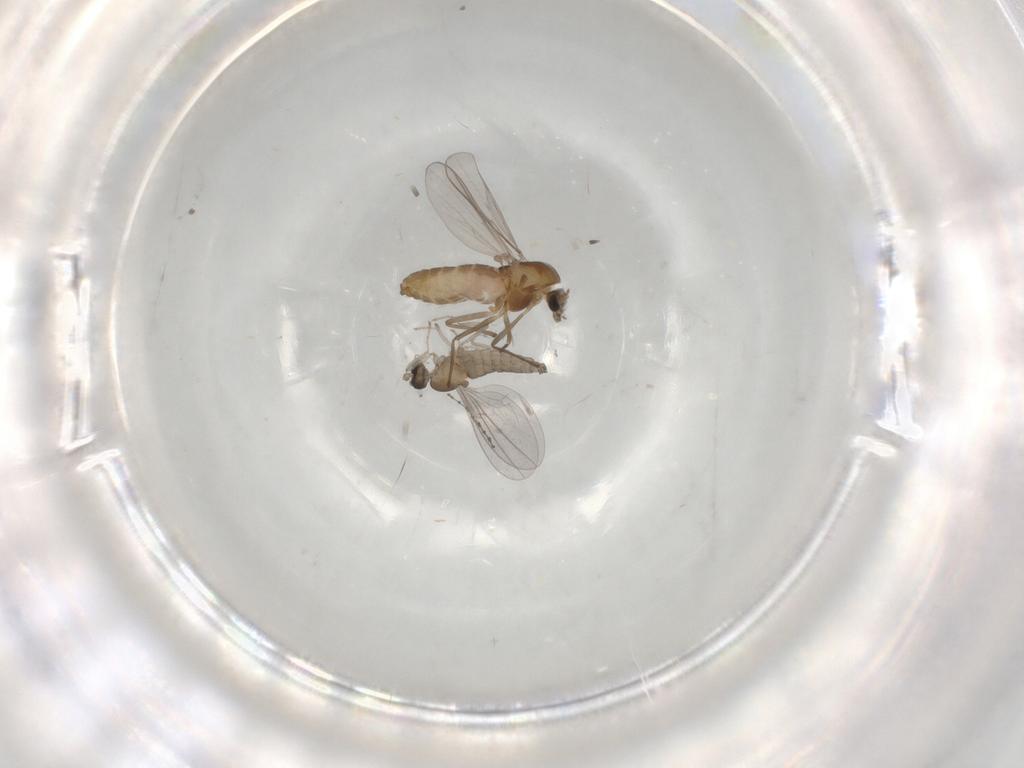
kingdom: Animalia
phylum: Arthropoda
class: Insecta
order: Diptera
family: Chironomidae
